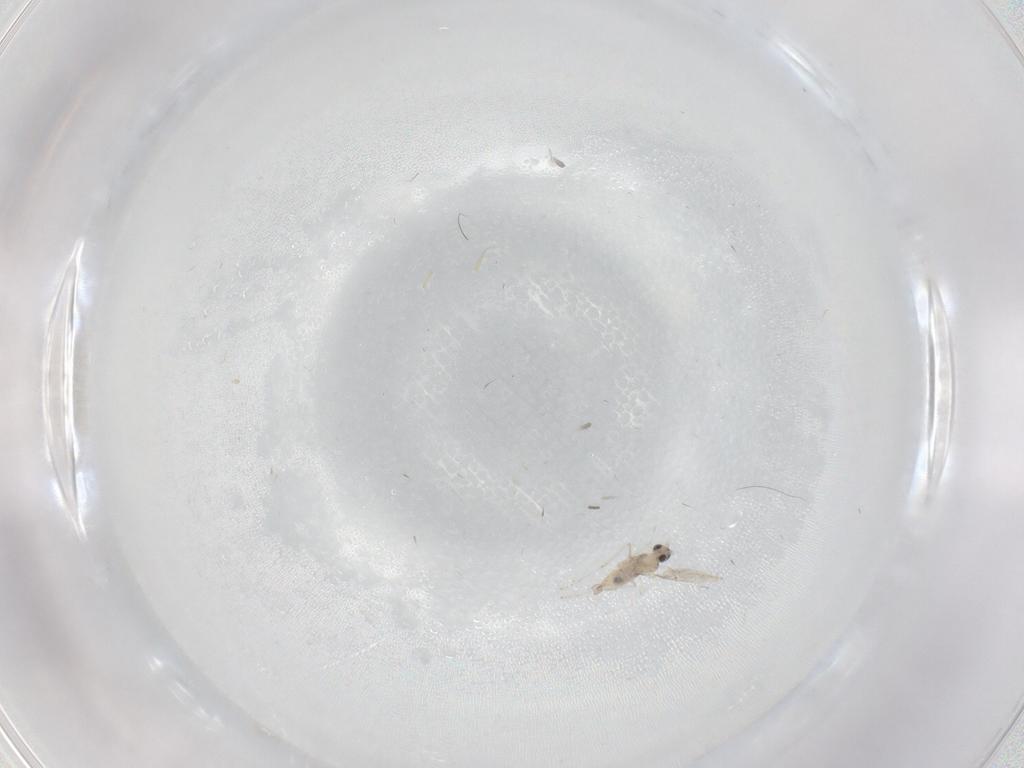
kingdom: Animalia
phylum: Arthropoda
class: Insecta
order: Diptera
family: Cecidomyiidae
